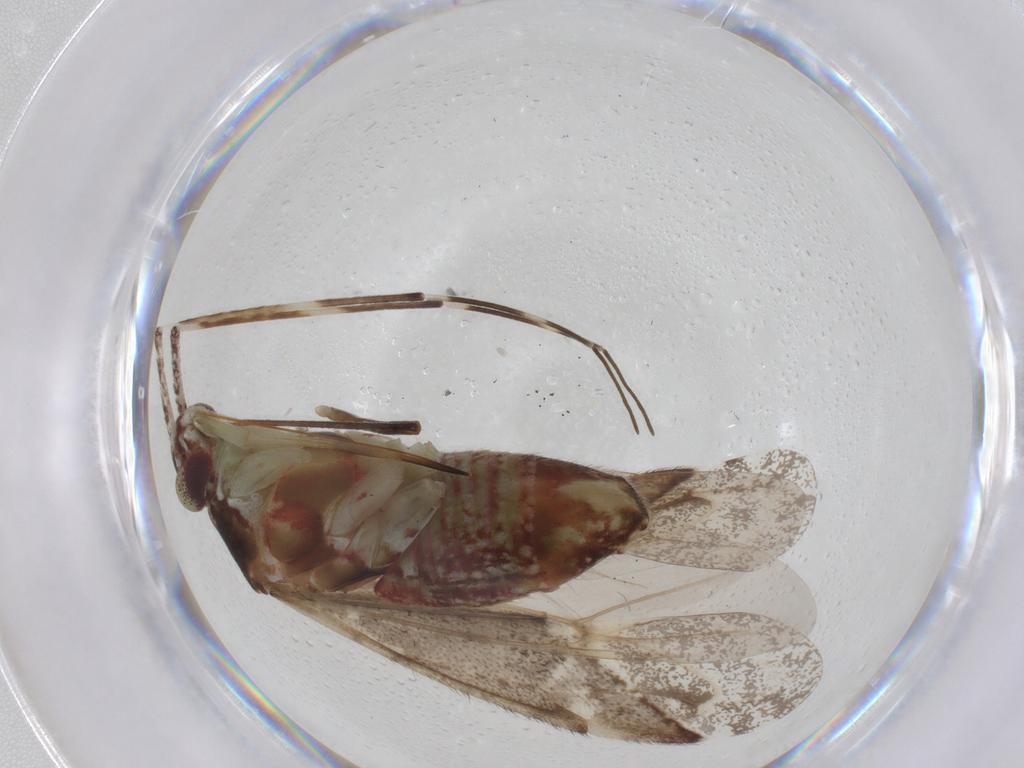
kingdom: Animalia
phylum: Arthropoda
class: Insecta
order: Hemiptera
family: Miridae
